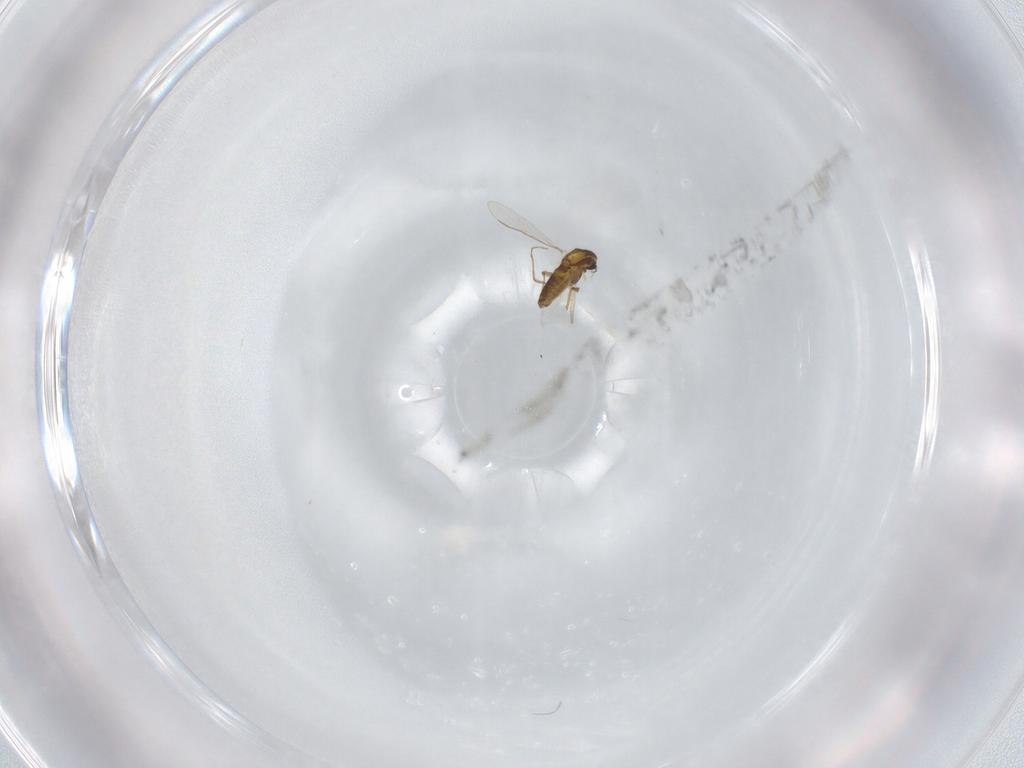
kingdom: Animalia
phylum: Arthropoda
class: Insecta
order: Diptera
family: Chironomidae
